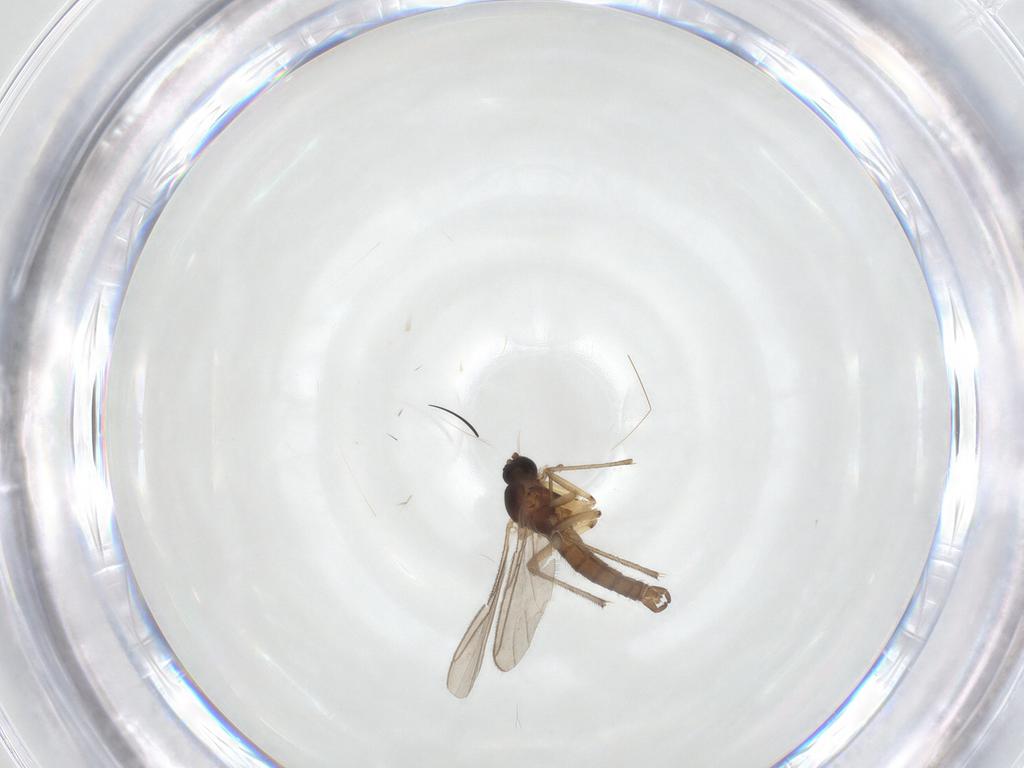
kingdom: Animalia
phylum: Arthropoda
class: Insecta
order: Diptera
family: Sciaridae
